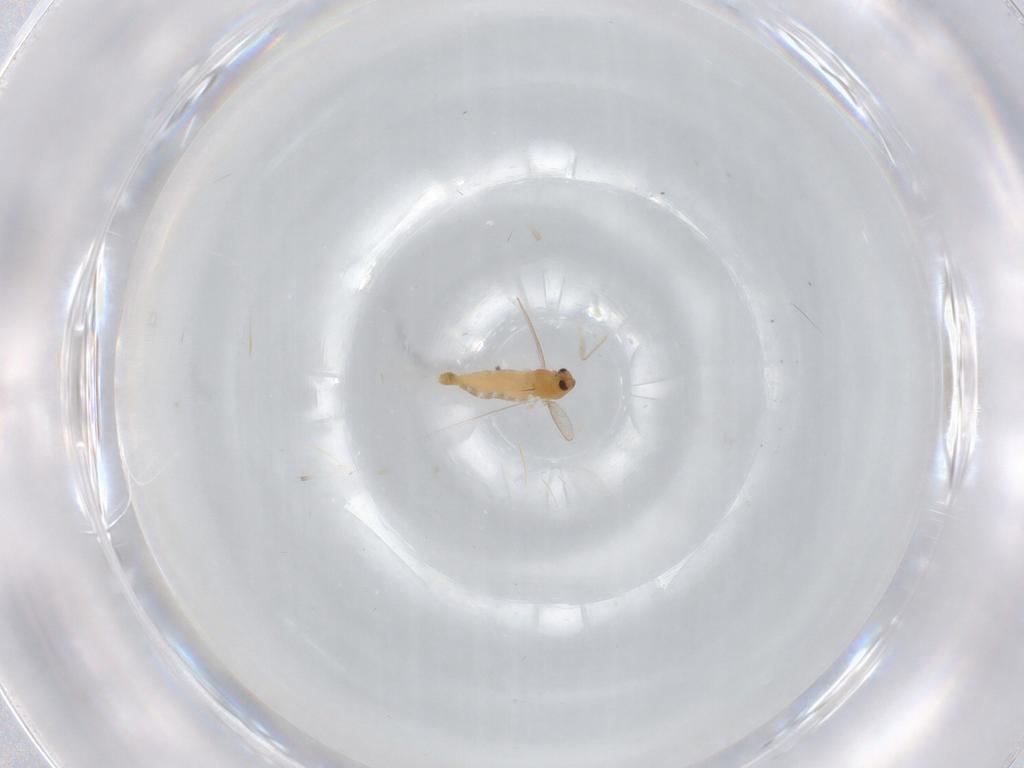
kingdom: Animalia
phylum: Arthropoda
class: Insecta
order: Diptera
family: Chironomidae
